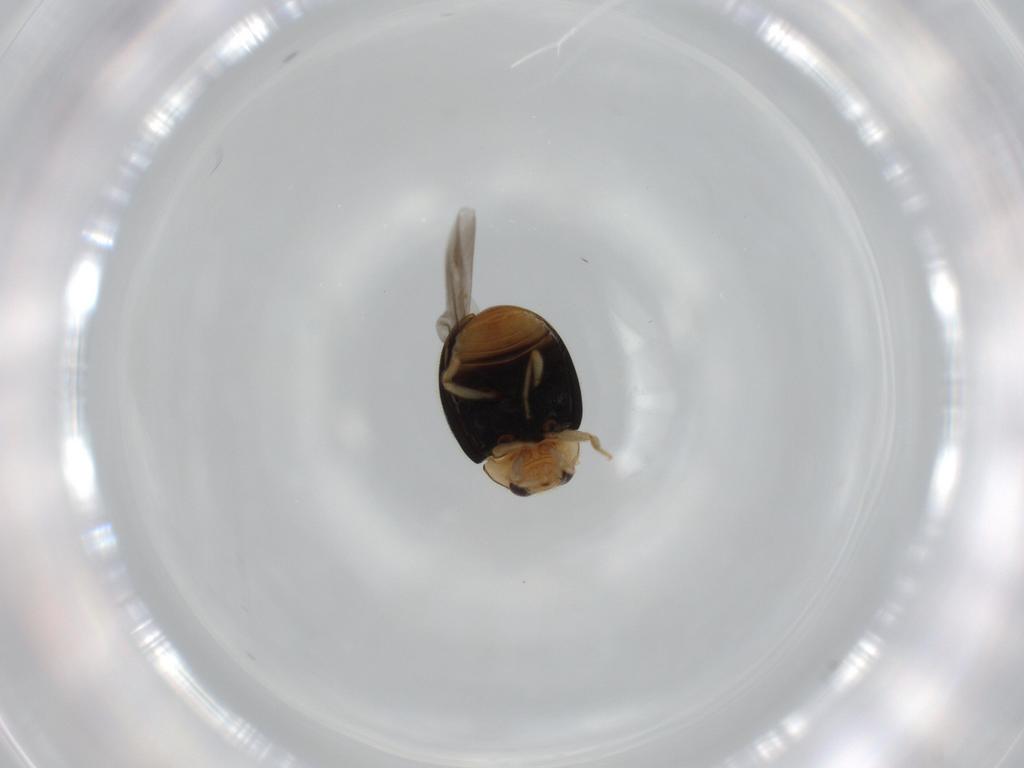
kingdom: Animalia
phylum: Arthropoda
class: Insecta
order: Coleoptera
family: Coccinellidae
